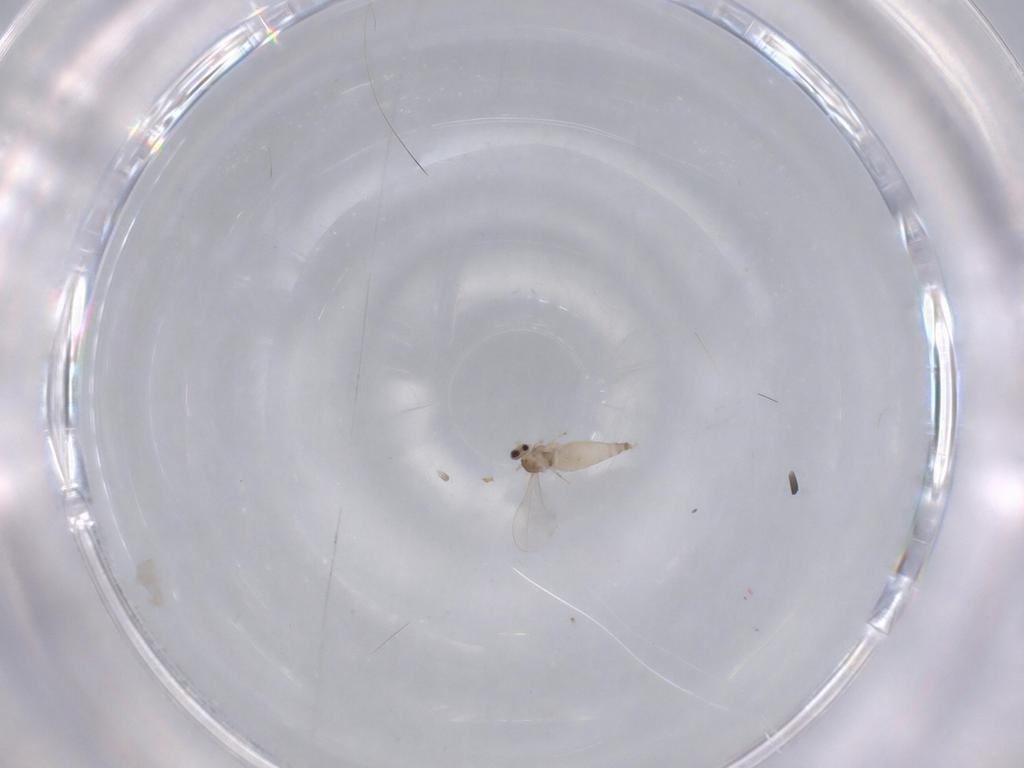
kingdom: Animalia
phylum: Arthropoda
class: Insecta
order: Diptera
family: Cecidomyiidae
